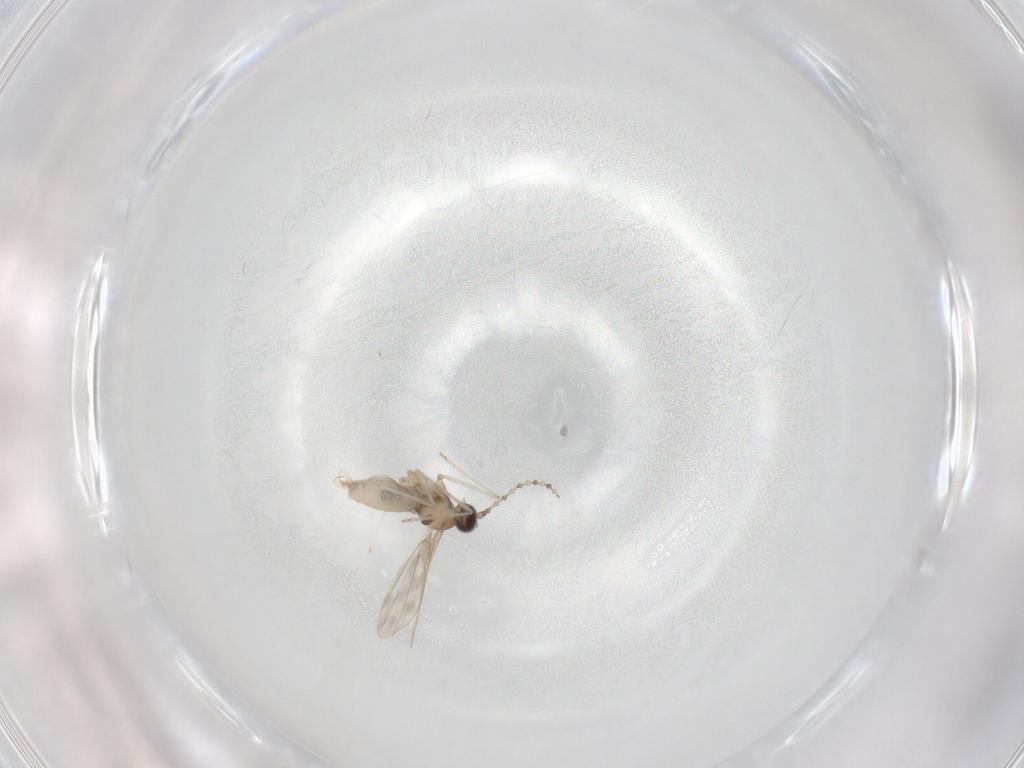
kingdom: Animalia
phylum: Arthropoda
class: Insecta
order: Diptera
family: Cecidomyiidae
